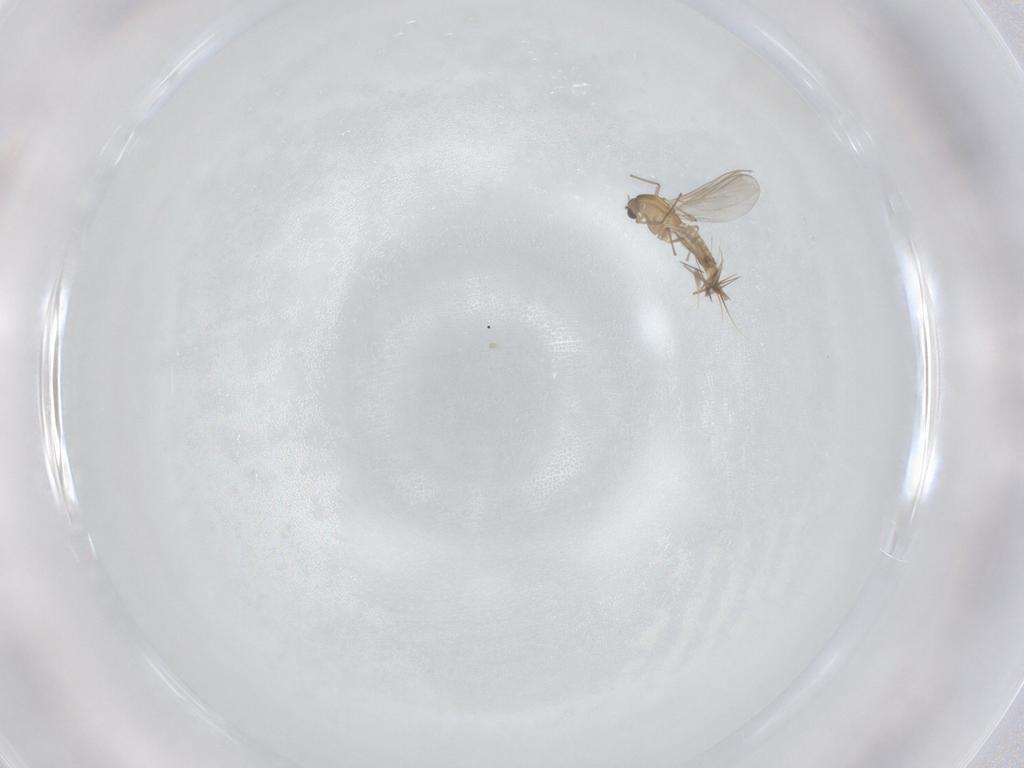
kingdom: Animalia
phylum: Arthropoda
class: Insecta
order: Diptera
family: Chironomidae
